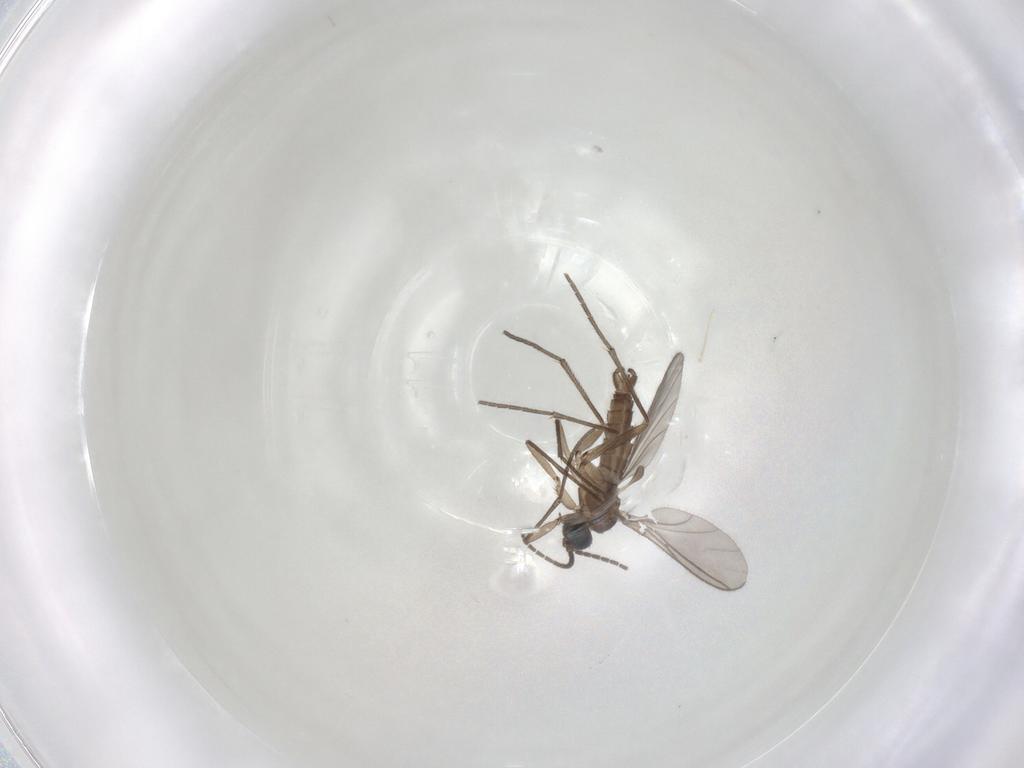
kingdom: Animalia
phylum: Arthropoda
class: Insecta
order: Diptera
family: Sciaridae
